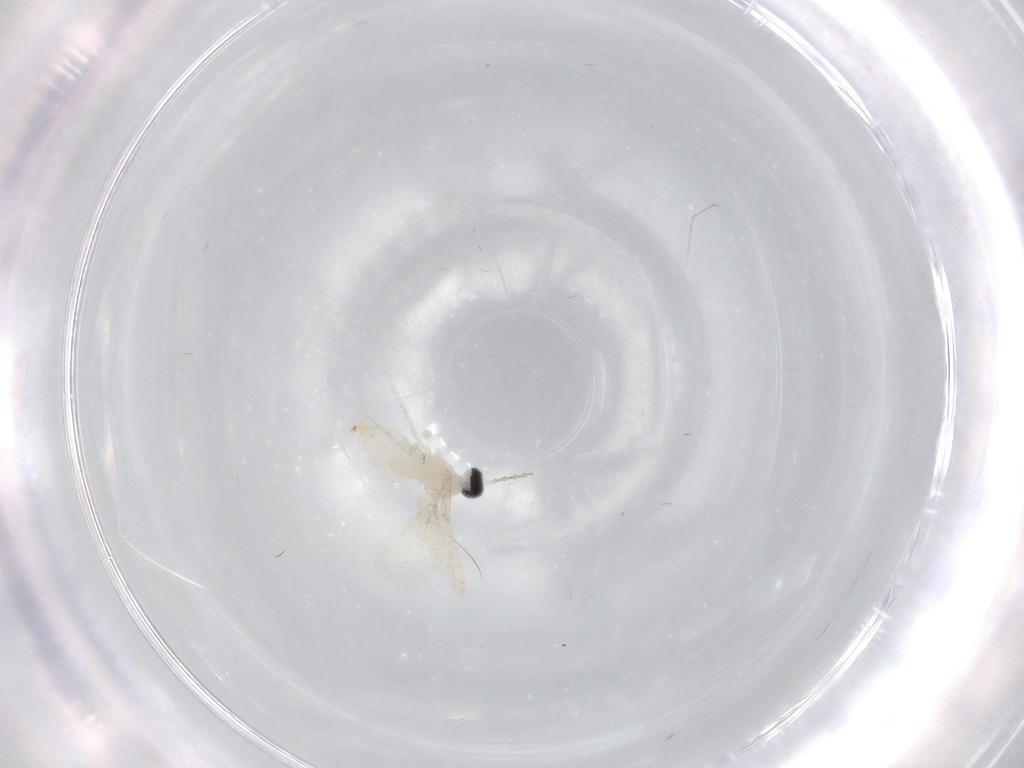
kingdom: Animalia
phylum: Arthropoda
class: Insecta
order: Diptera
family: Cecidomyiidae
